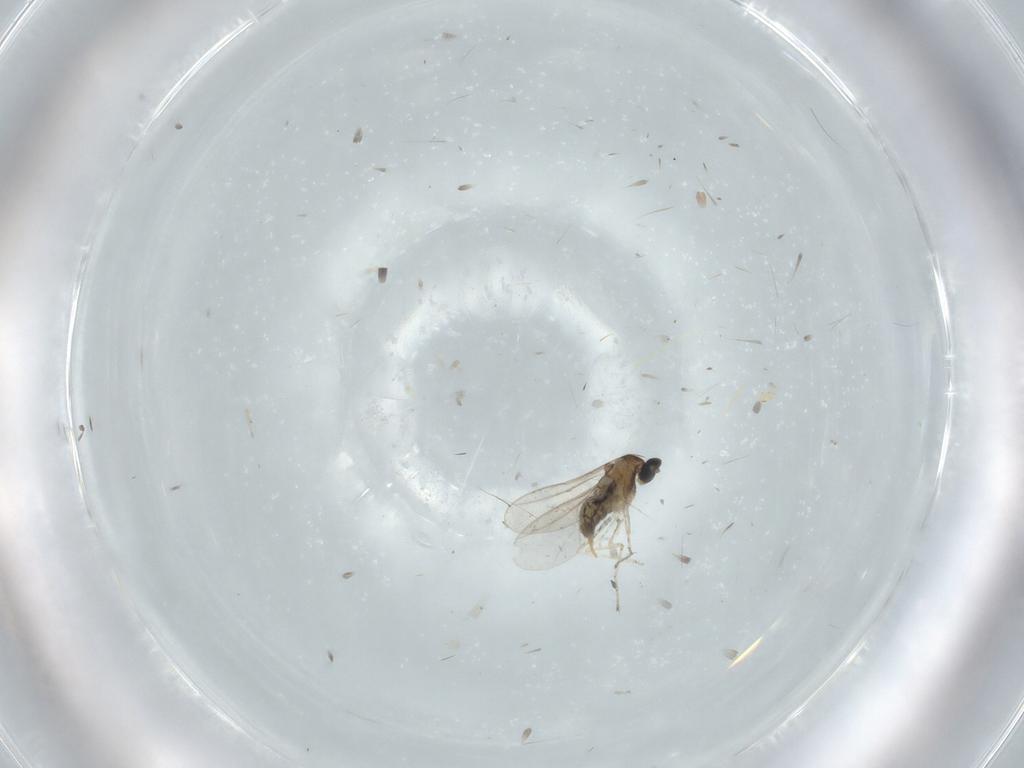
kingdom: Animalia
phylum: Arthropoda
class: Insecta
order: Diptera
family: Cecidomyiidae
